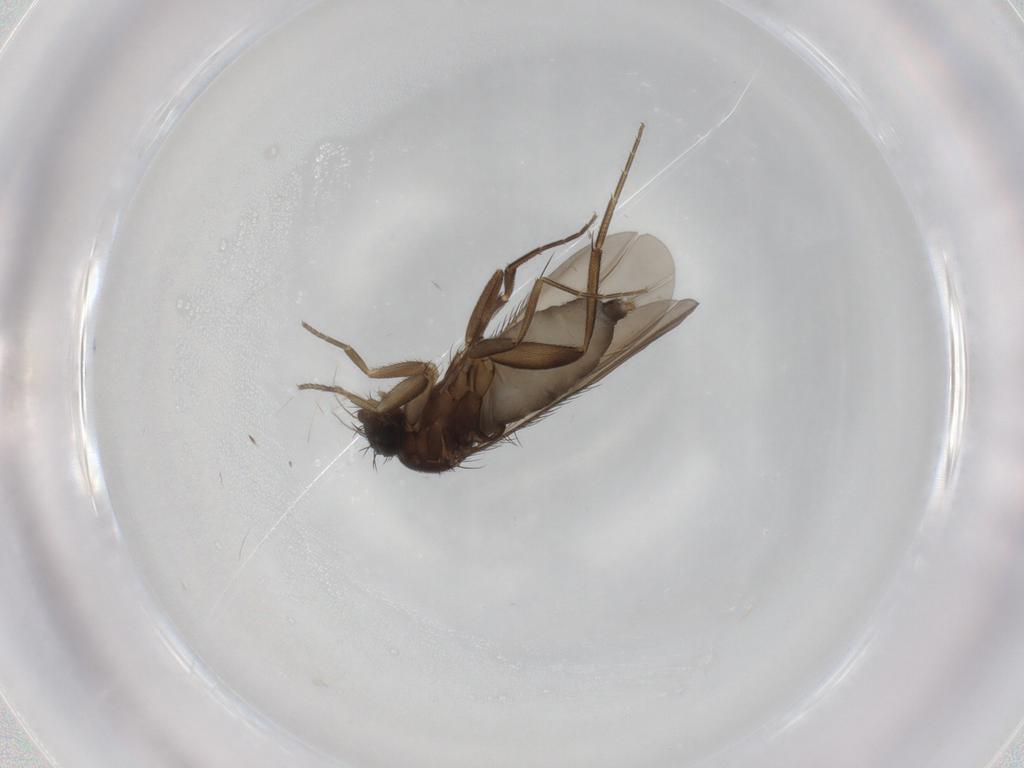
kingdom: Animalia
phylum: Arthropoda
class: Insecta
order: Diptera
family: Phoridae
